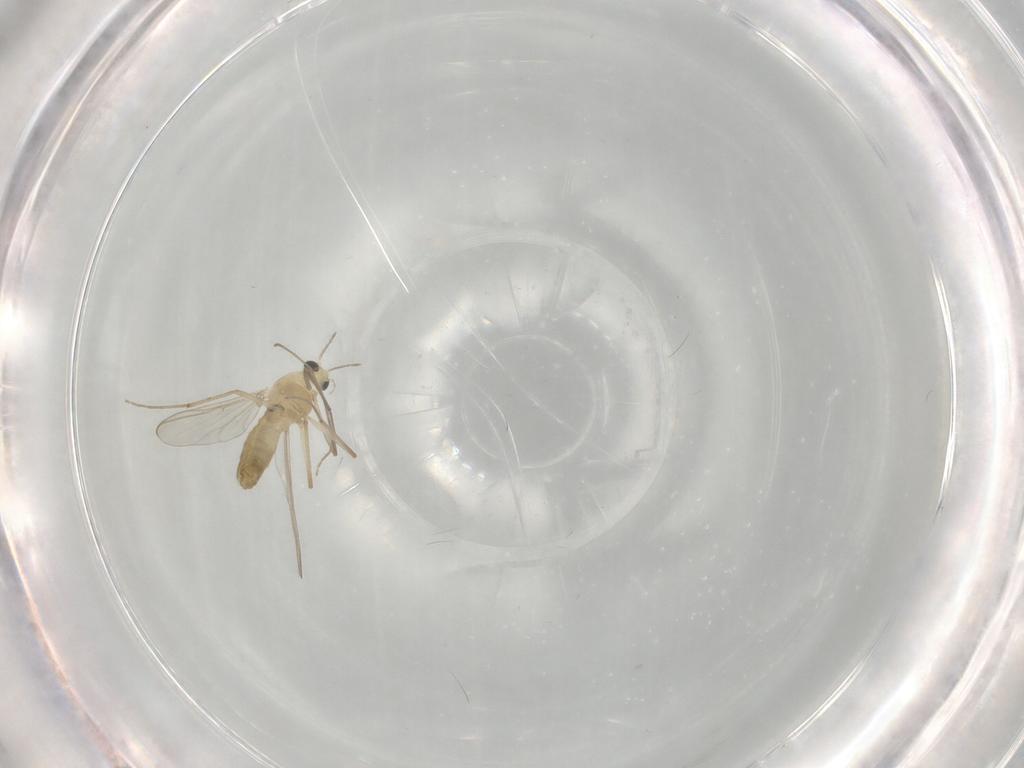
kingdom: Animalia
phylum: Arthropoda
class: Insecta
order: Diptera
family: Chironomidae
